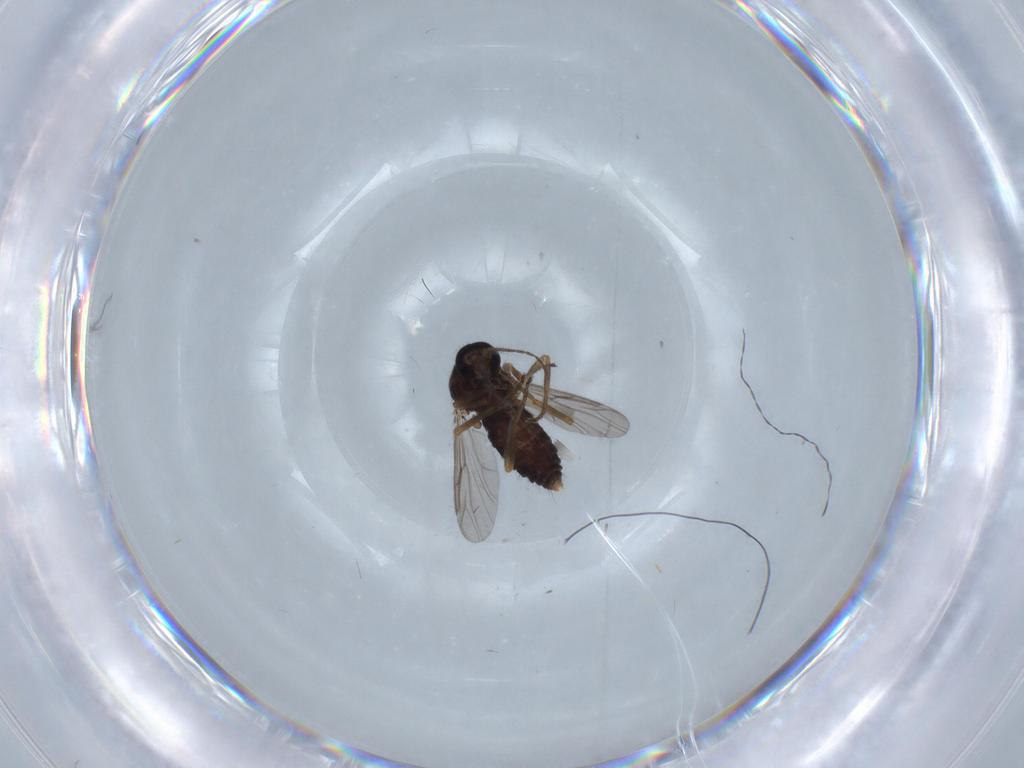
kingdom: Animalia
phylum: Arthropoda
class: Insecta
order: Diptera
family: Ceratopogonidae
